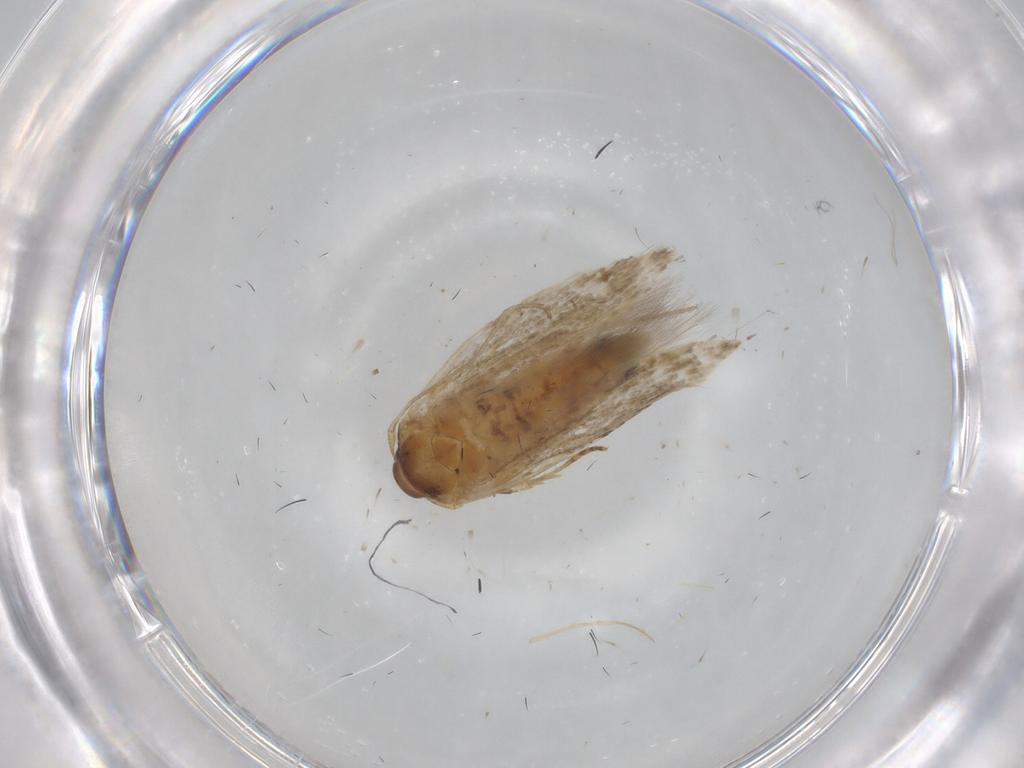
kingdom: Animalia
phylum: Arthropoda
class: Insecta
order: Lepidoptera
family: Cosmopterigidae
